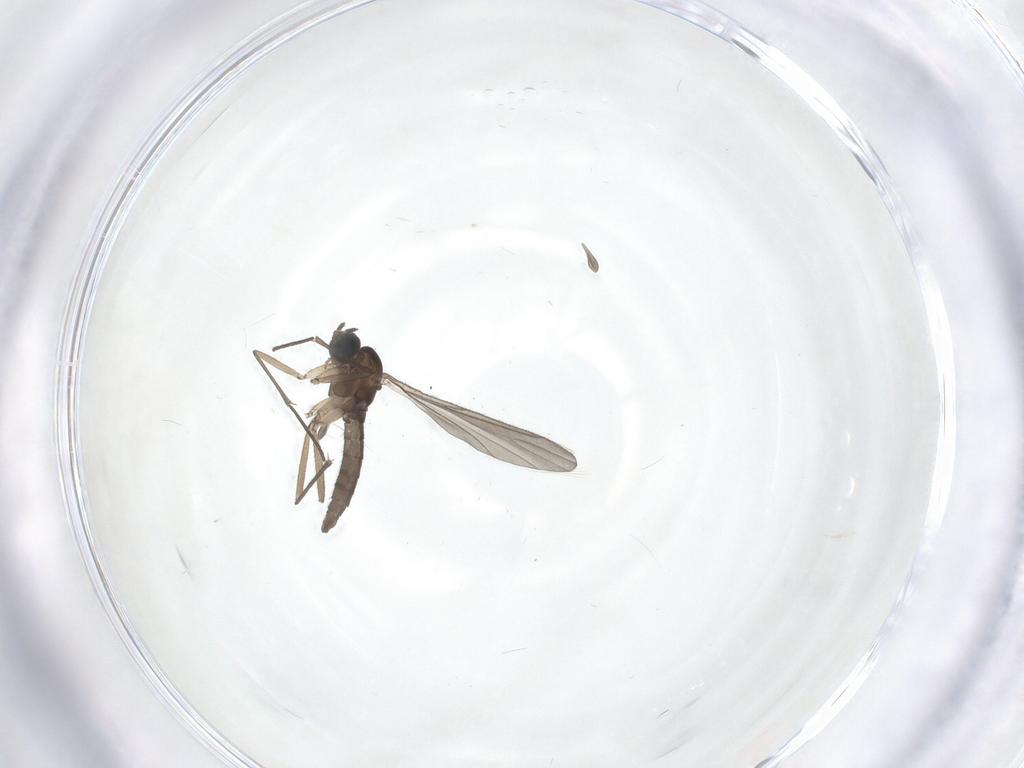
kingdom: Animalia
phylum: Arthropoda
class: Insecta
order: Diptera
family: Sciaridae
